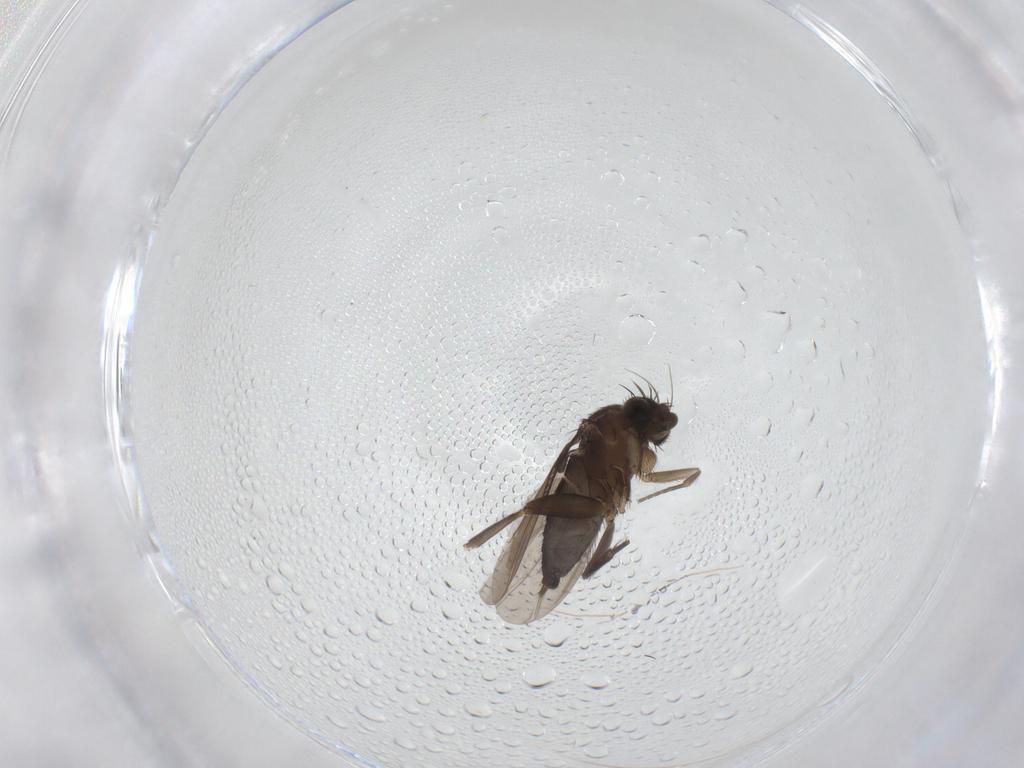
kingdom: Animalia
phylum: Arthropoda
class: Insecta
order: Diptera
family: Phoridae
